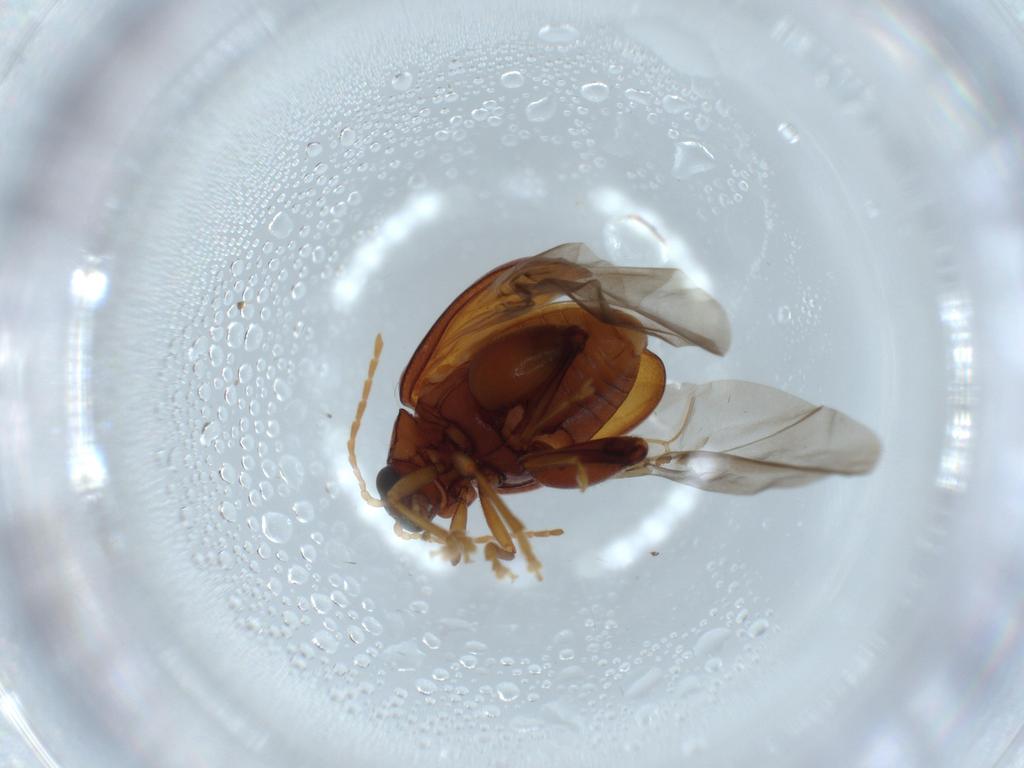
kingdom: Animalia
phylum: Arthropoda
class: Insecta
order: Coleoptera
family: Chrysomelidae
